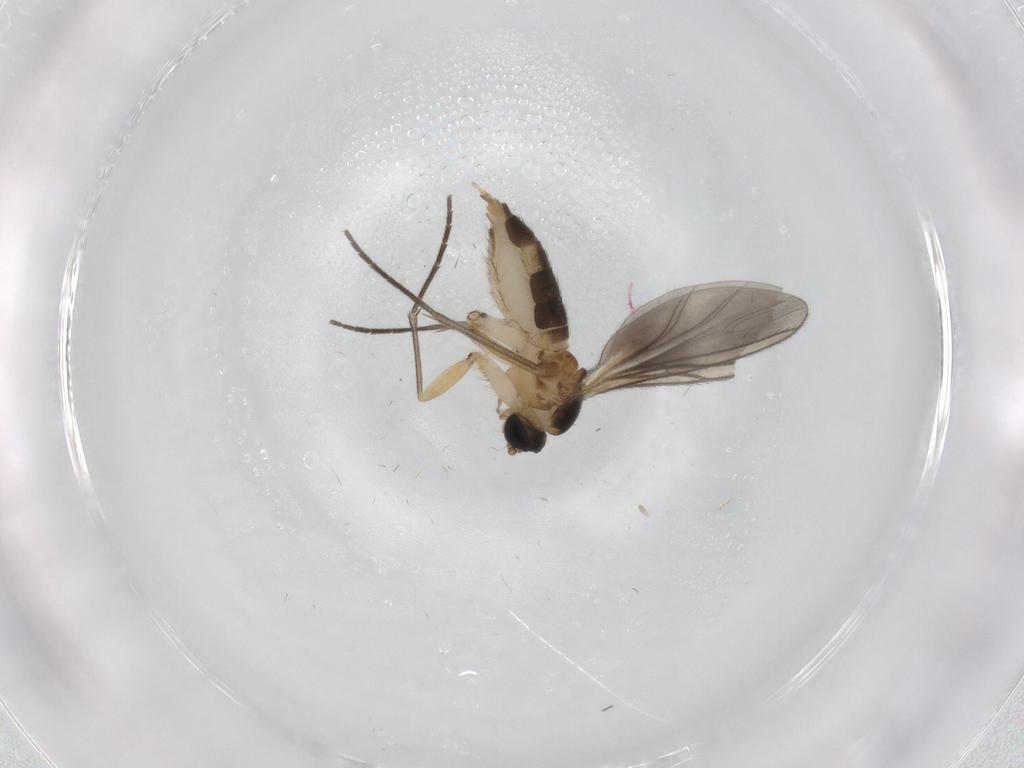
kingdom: Animalia
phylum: Arthropoda
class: Insecta
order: Diptera
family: Sciaridae
